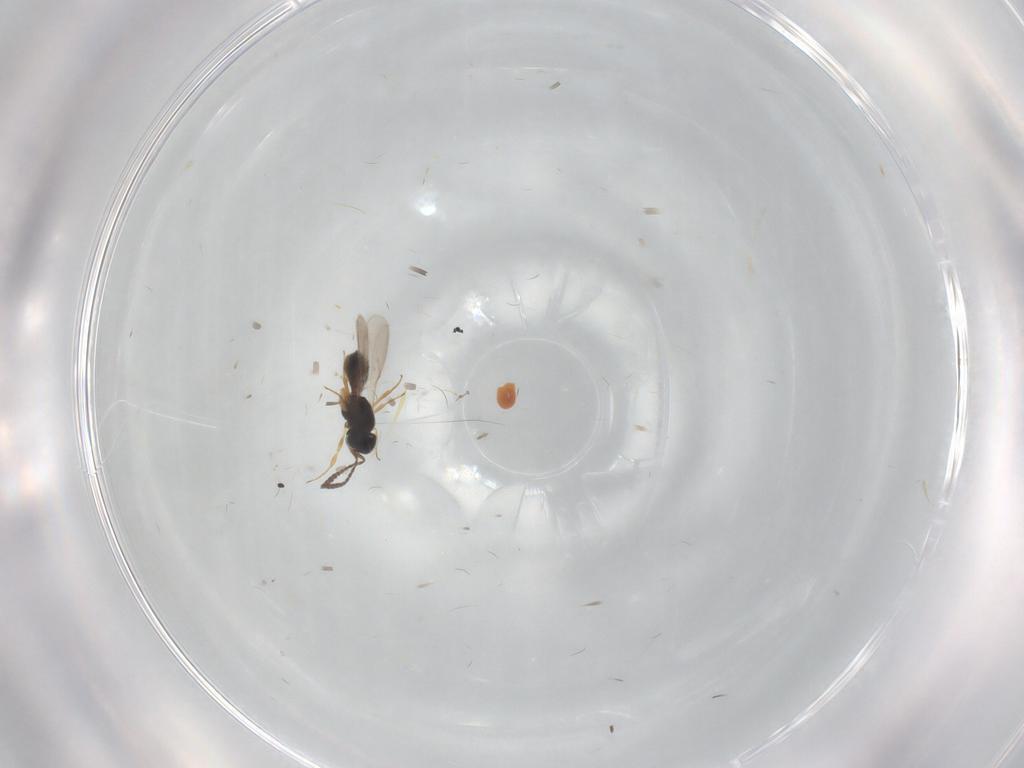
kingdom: Animalia
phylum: Arthropoda
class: Insecta
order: Hymenoptera
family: Scelionidae
